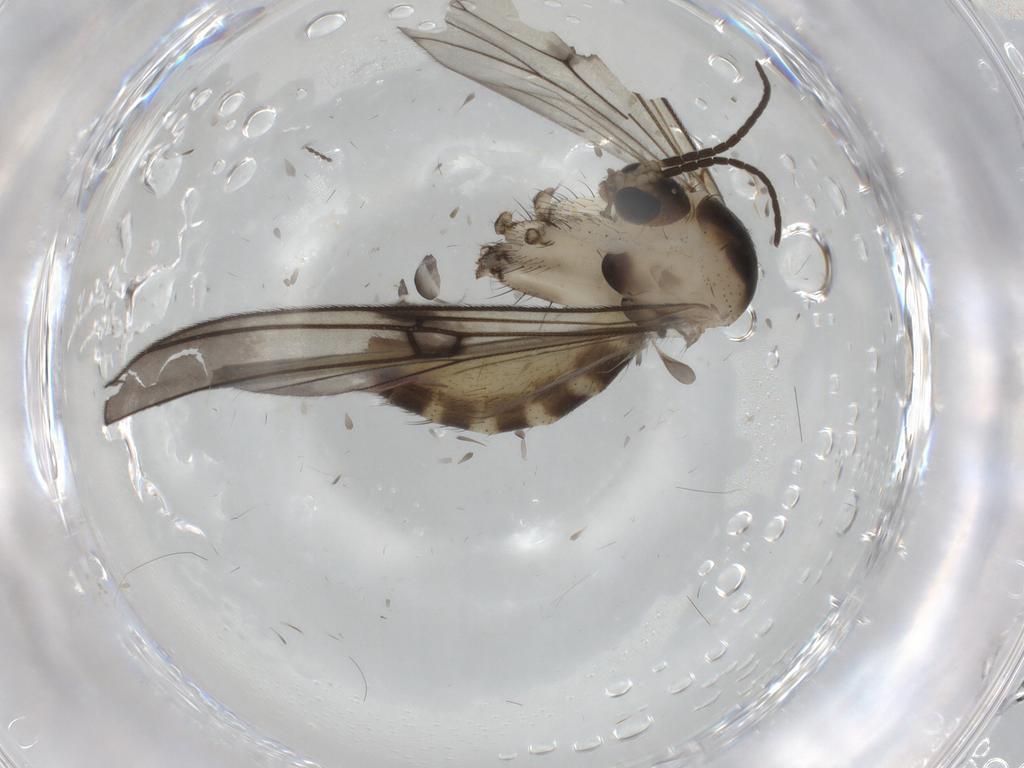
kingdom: Animalia
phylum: Arthropoda
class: Insecta
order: Diptera
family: Mycetophilidae
